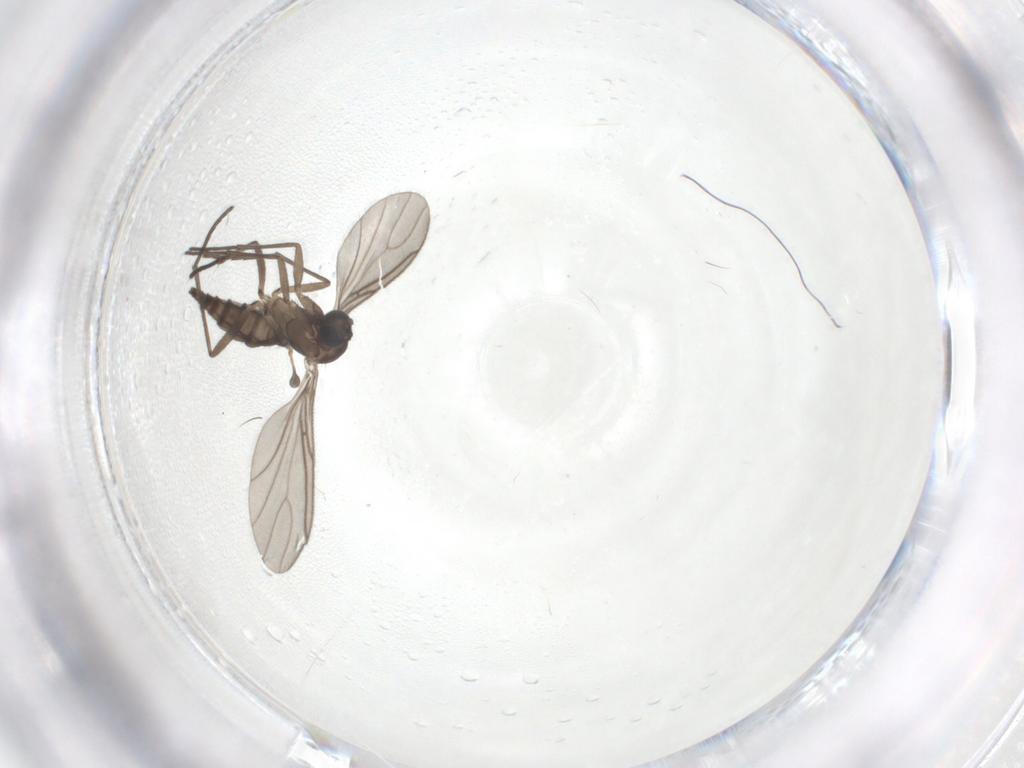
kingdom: Animalia
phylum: Arthropoda
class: Insecta
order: Diptera
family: Sciaridae
